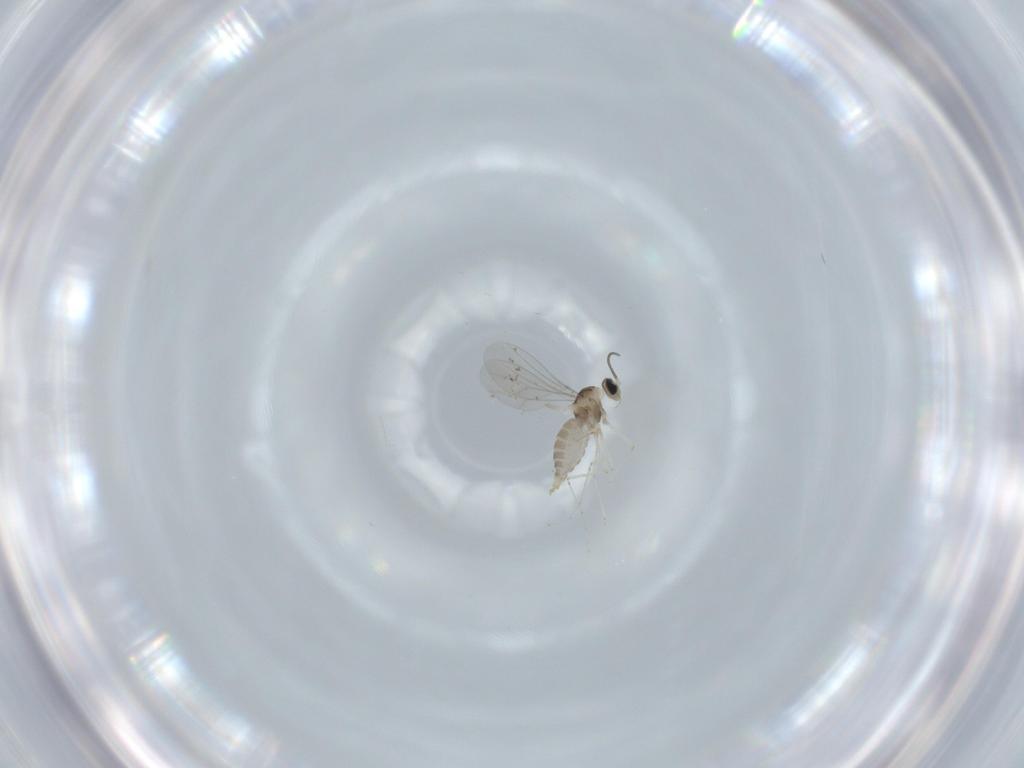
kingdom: Animalia
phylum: Arthropoda
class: Insecta
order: Diptera
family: Cecidomyiidae
